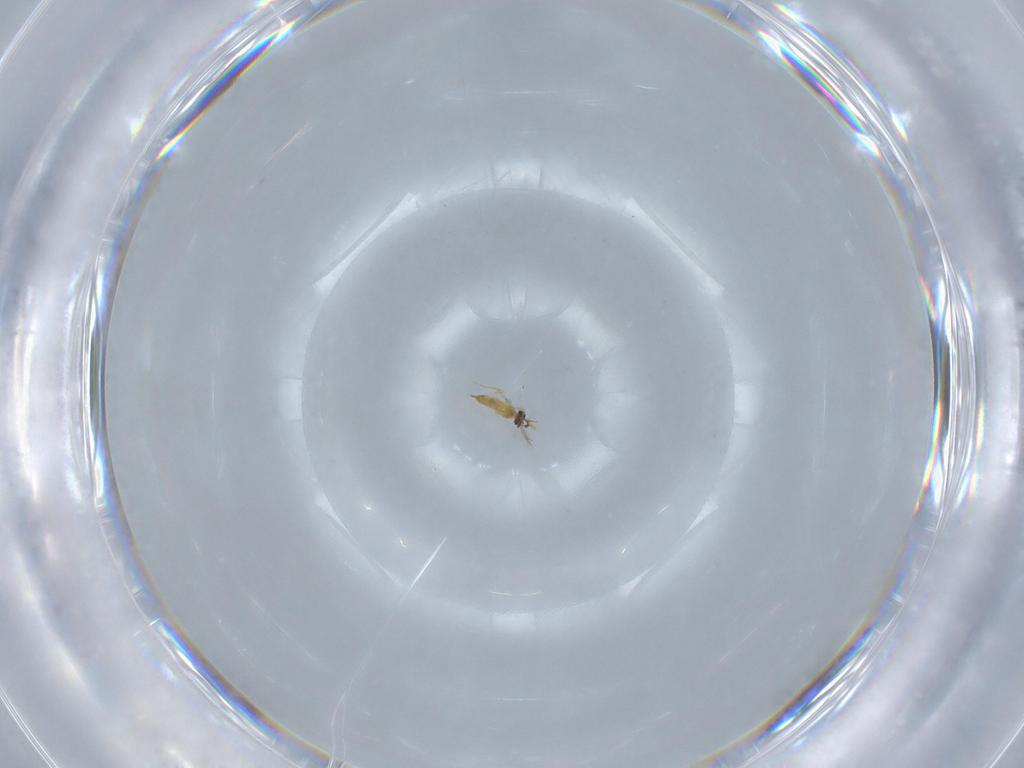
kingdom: Animalia
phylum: Arthropoda
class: Insecta
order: Hymenoptera
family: Mymaridae
